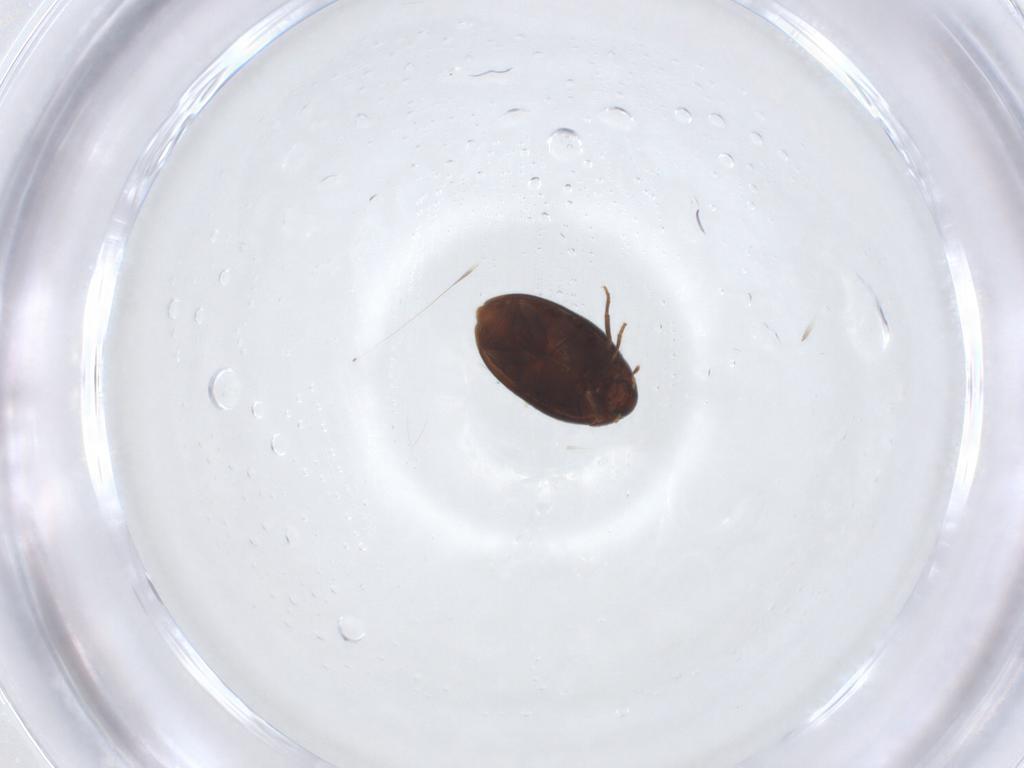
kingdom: Animalia
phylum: Arthropoda
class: Insecta
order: Coleoptera
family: Melandryidae
